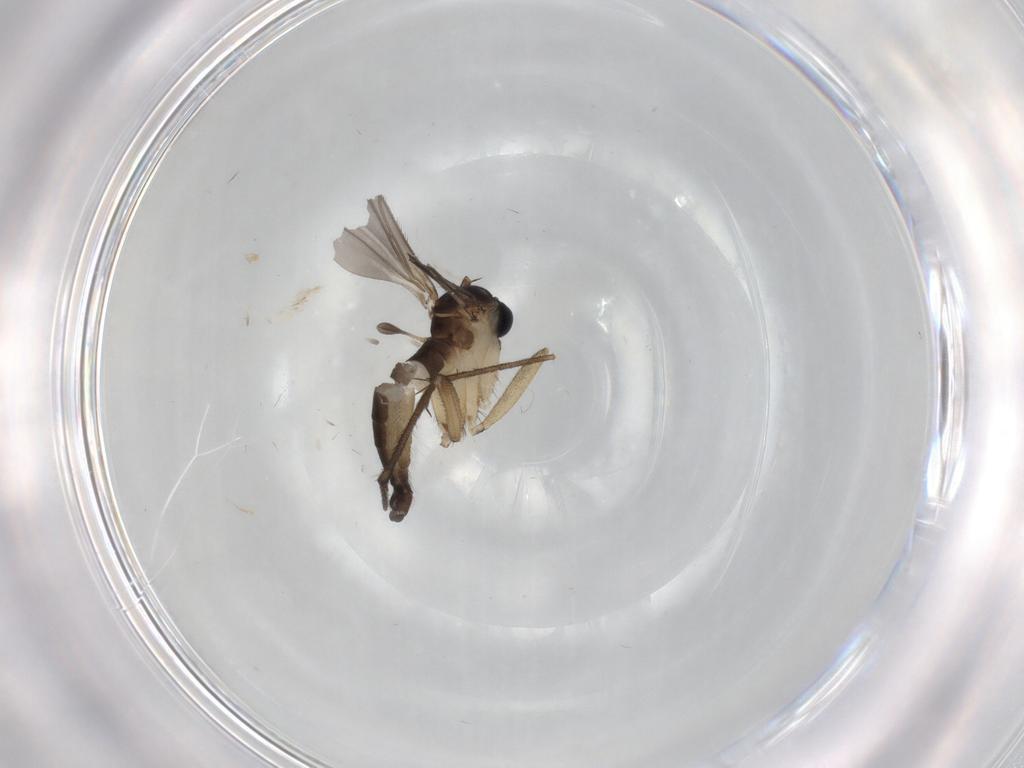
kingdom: Animalia
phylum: Arthropoda
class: Insecta
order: Diptera
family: Sciaridae
